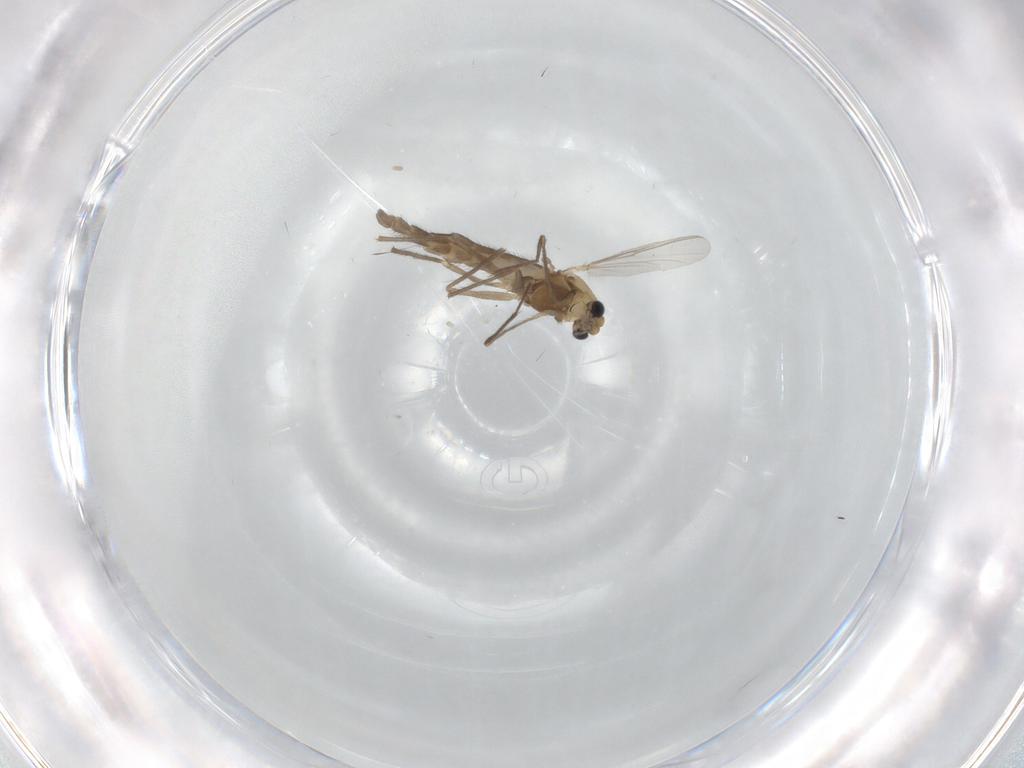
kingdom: Animalia
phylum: Arthropoda
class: Insecta
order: Diptera
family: Chironomidae
